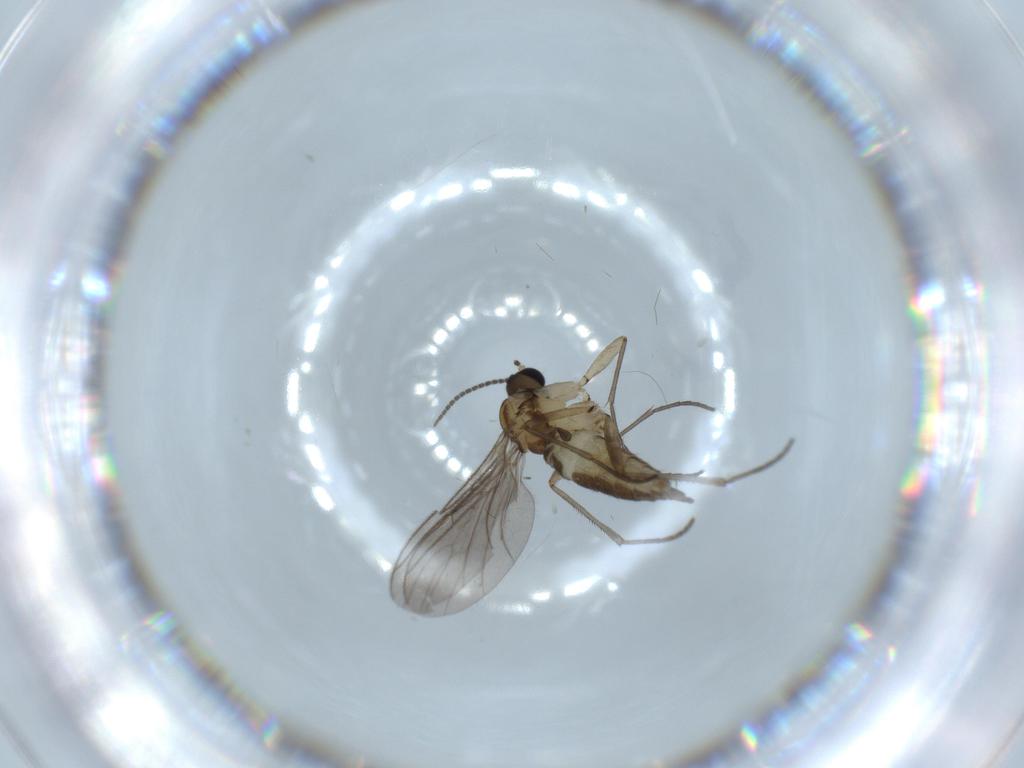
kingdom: Animalia
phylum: Arthropoda
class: Insecta
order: Diptera
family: Sciaridae
